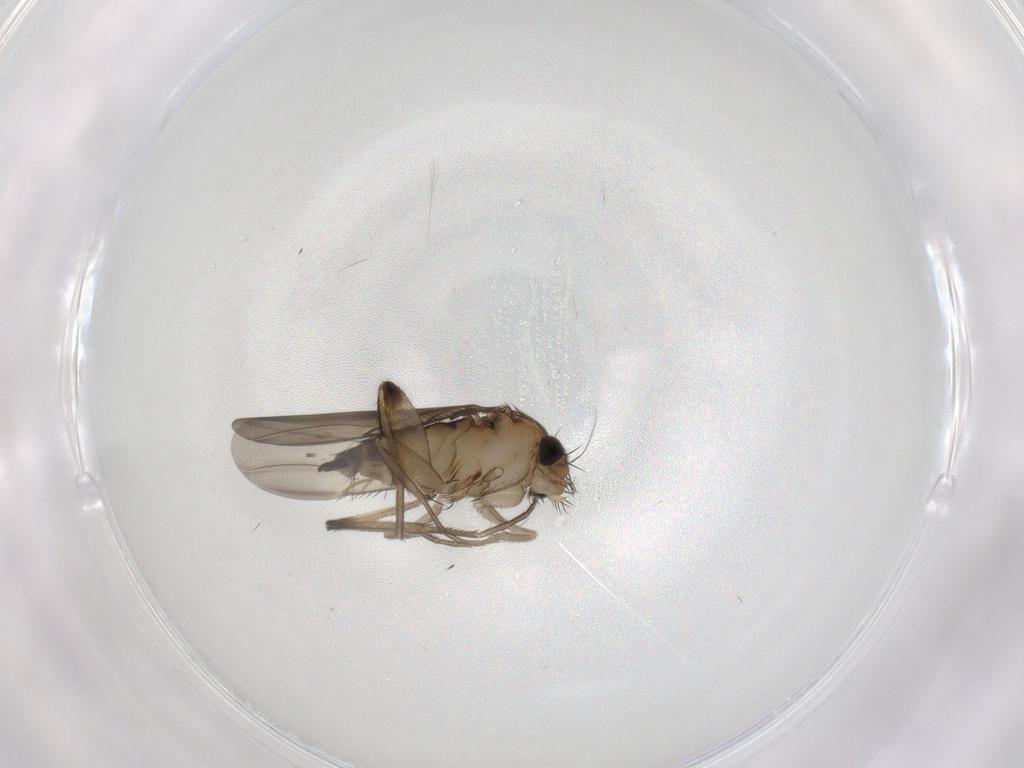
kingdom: Animalia
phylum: Arthropoda
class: Insecta
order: Diptera
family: Phoridae
